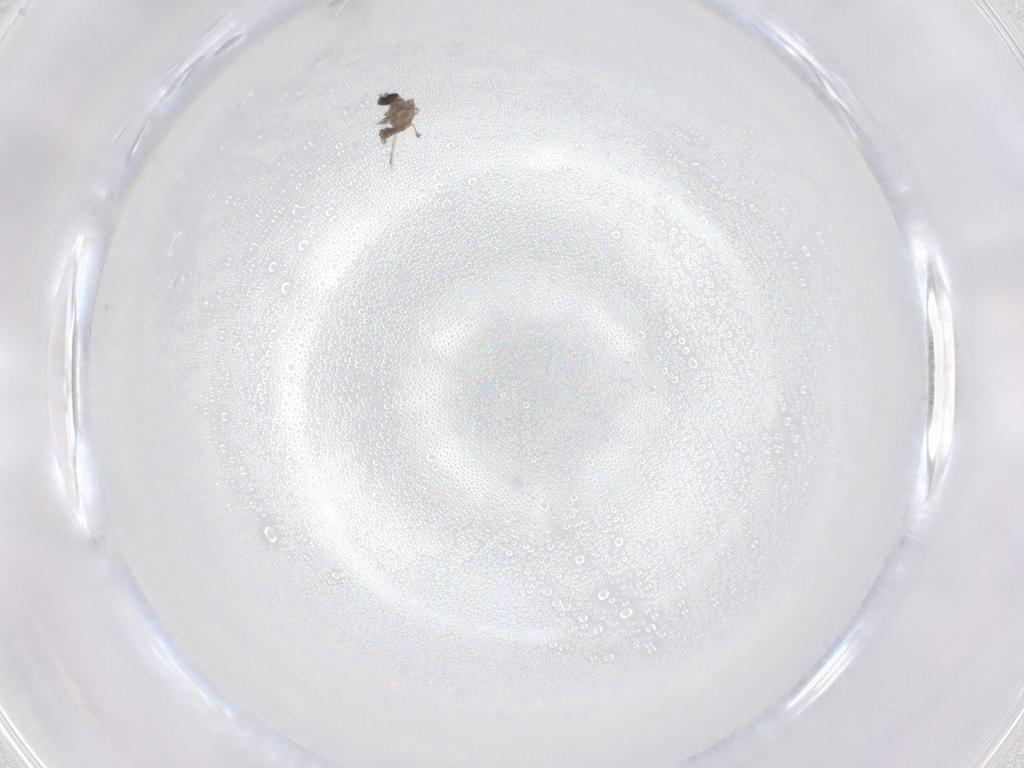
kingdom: Animalia
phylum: Arthropoda
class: Insecta
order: Diptera
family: Cecidomyiidae
